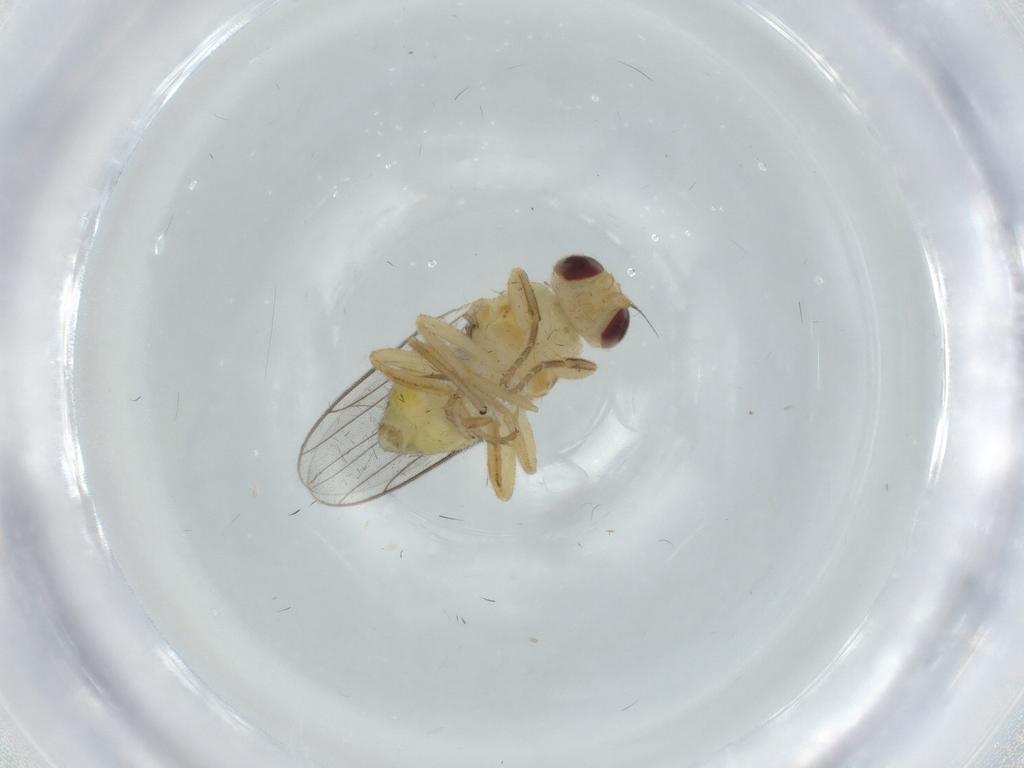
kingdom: Animalia
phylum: Arthropoda
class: Insecta
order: Diptera
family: Chloropidae
